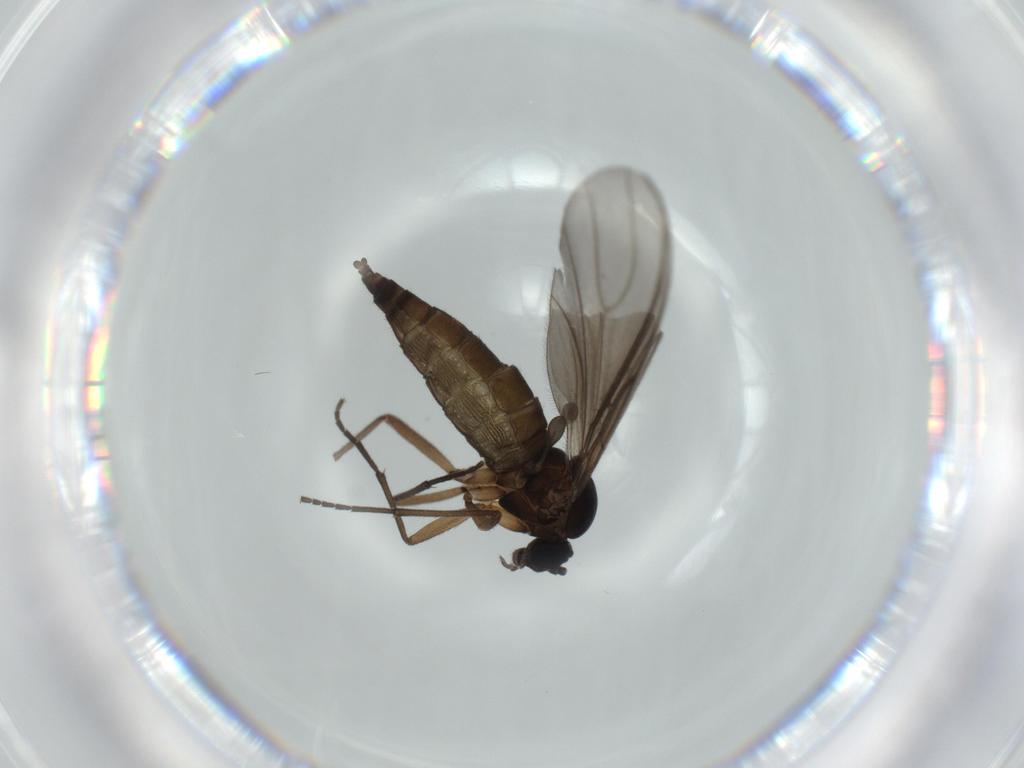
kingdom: Animalia
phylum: Arthropoda
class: Insecta
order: Diptera
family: Sciaridae
